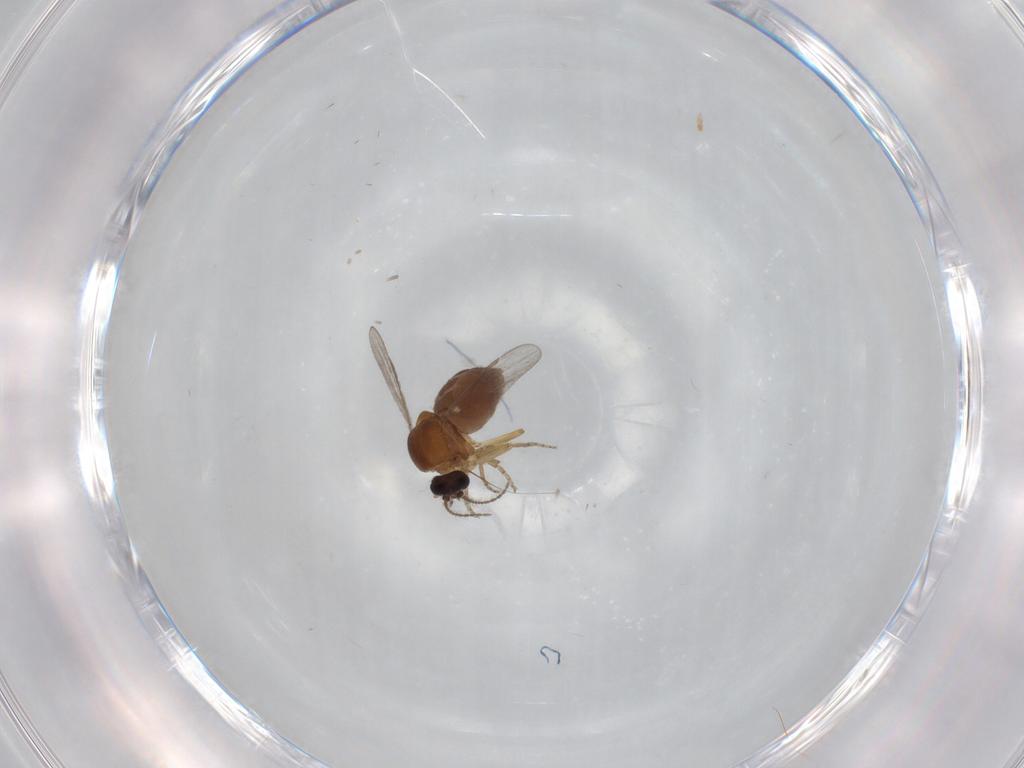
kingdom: Animalia
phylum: Arthropoda
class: Insecta
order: Diptera
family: Ceratopogonidae
